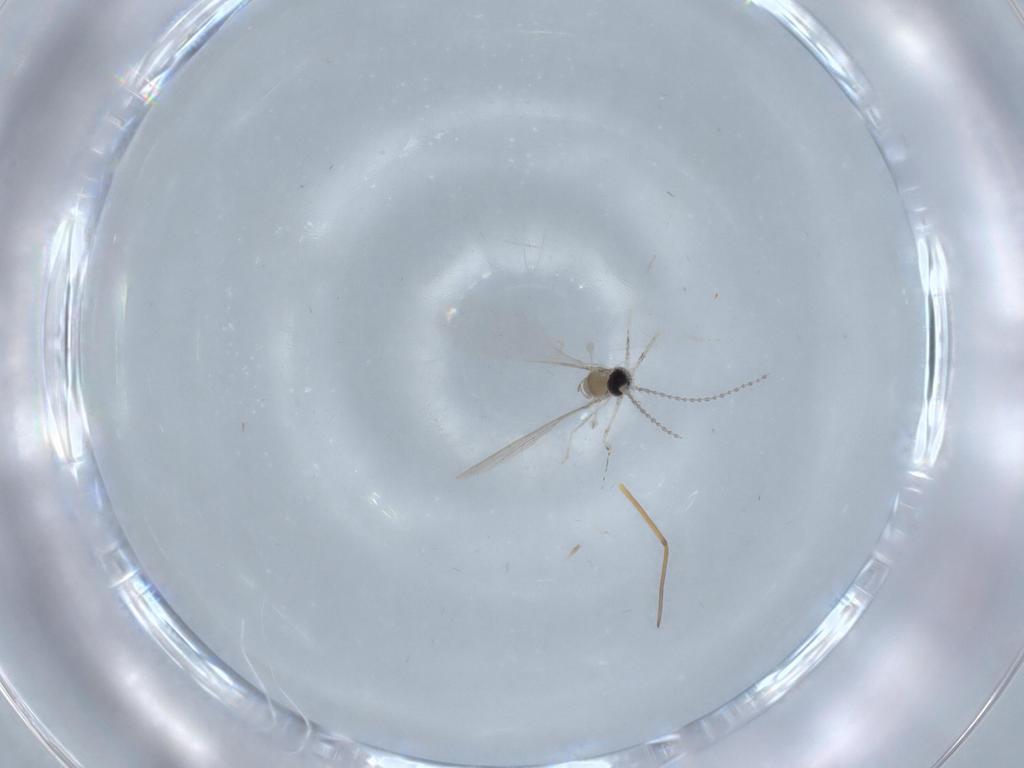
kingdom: Animalia
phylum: Arthropoda
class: Insecta
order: Diptera
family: Cecidomyiidae
